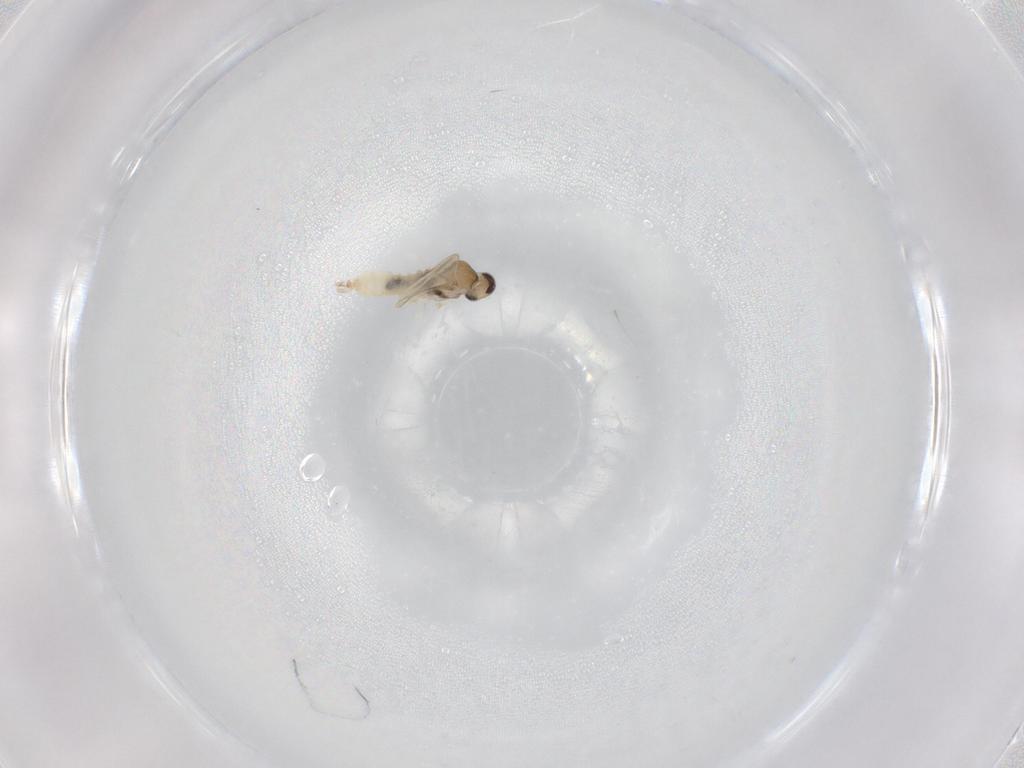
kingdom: Animalia
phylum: Arthropoda
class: Insecta
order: Diptera
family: Cecidomyiidae
